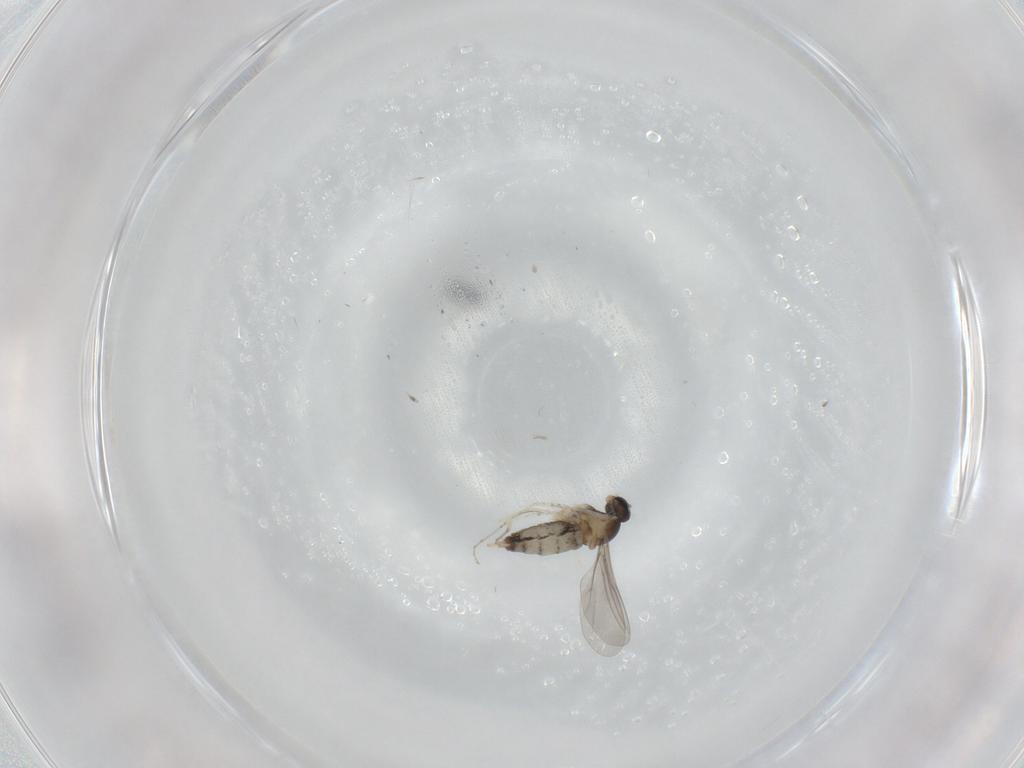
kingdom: Animalia
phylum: Arthropoda
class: Insecta
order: Diptera
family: Cecidomyiidae
